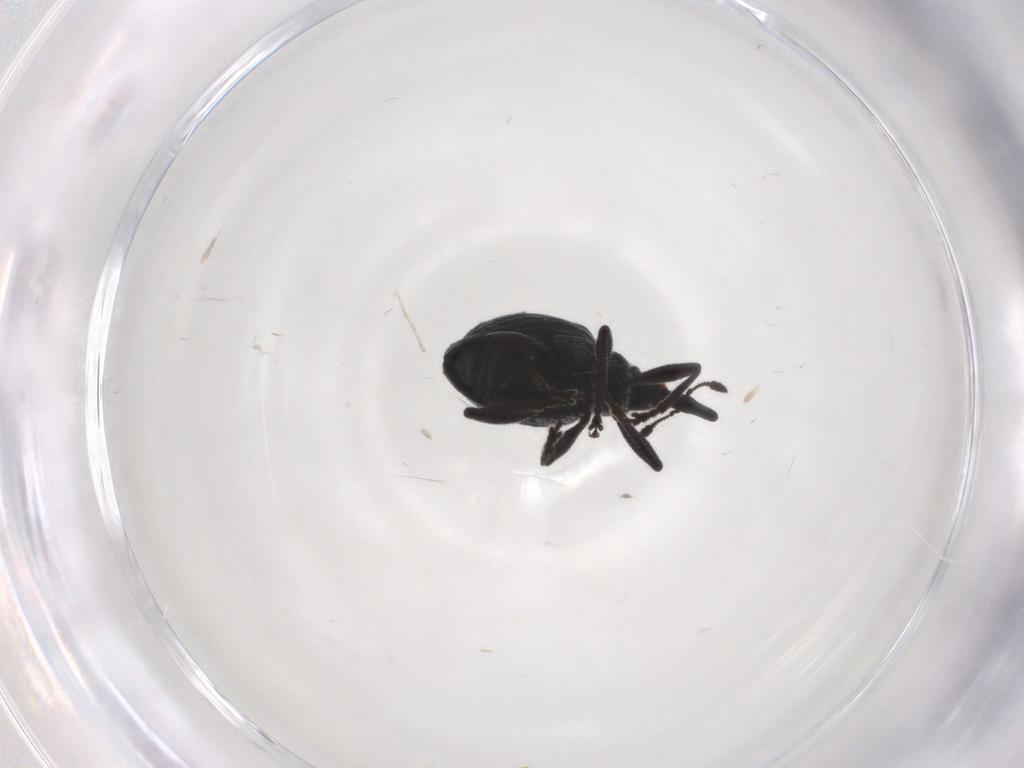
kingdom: Animalia
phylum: Arthropoda
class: Insecta
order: Coleoptera
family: Brentidae
